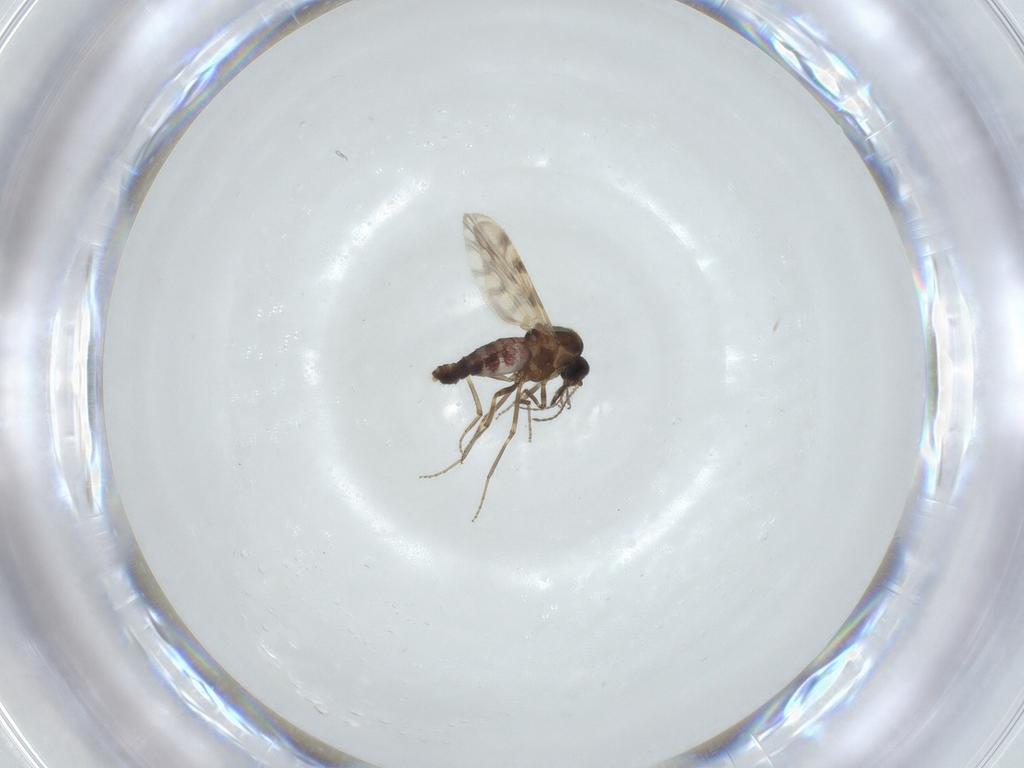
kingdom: Animalia
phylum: Arthropoda
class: Insecta
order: Diptera
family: Ceratopogonidae
